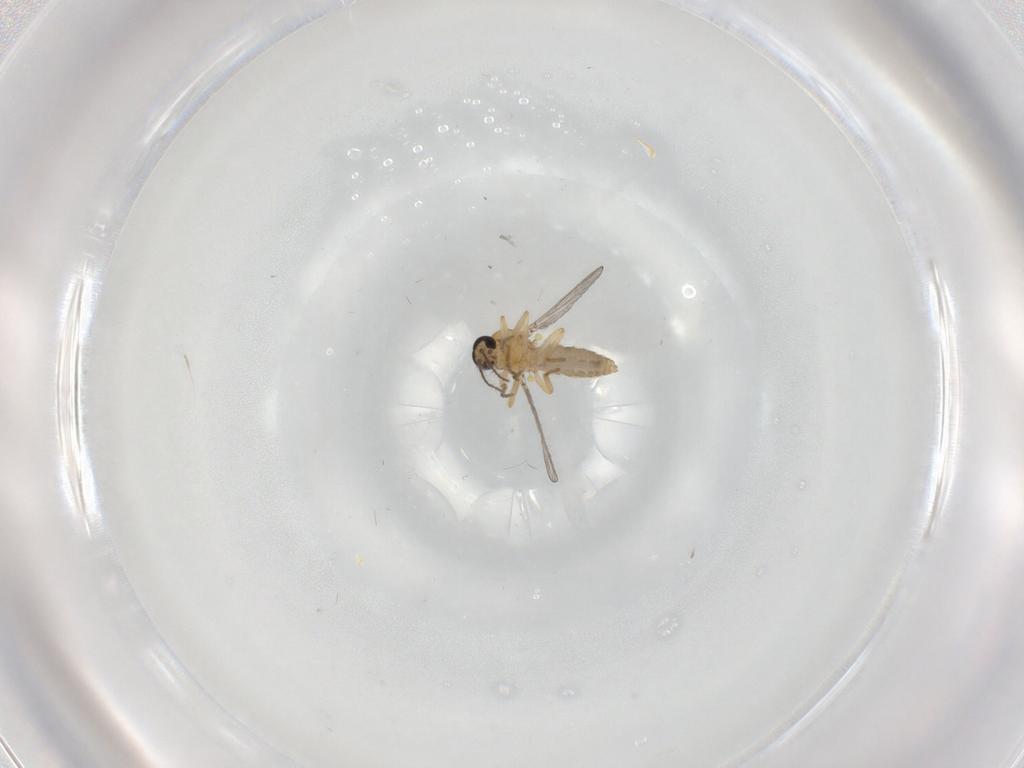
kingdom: Animalia
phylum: Arthropoda
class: Insecta
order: Diptera
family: Ceratopogonidae
